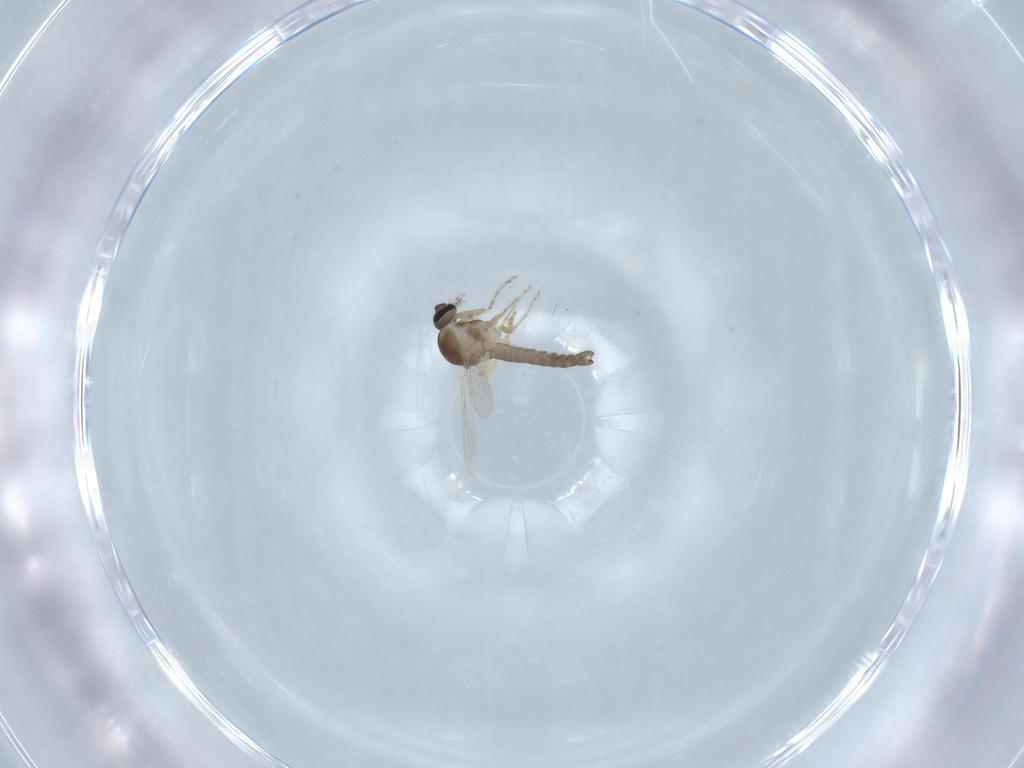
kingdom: Animalia
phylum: Arthropoda
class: Insecta
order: Diptera
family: Ceratopogonidae
